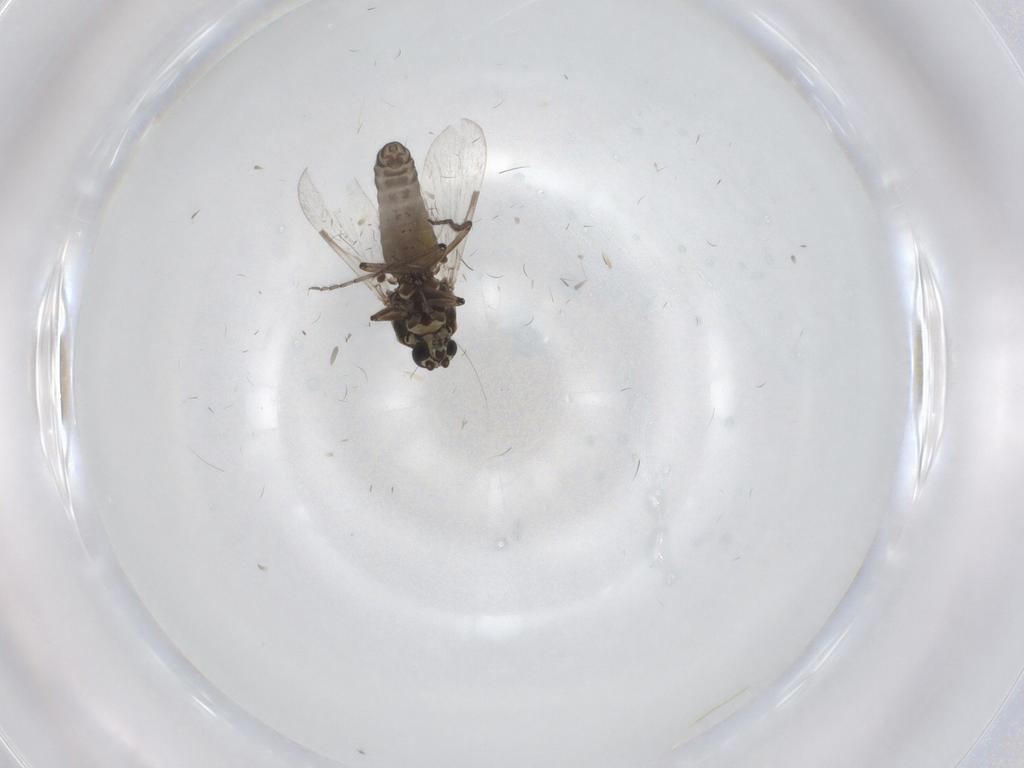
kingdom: Animalia
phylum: Arthropoda
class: Insecta
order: Diptera
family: Ceratopogonidae
